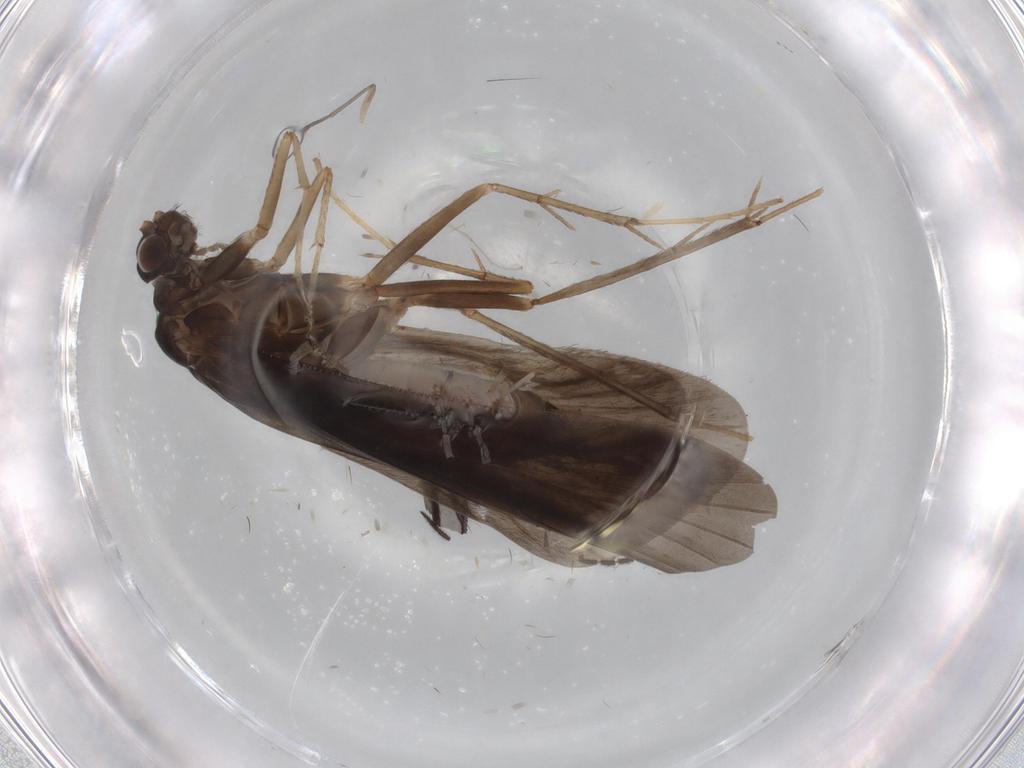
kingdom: Animalia
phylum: Arthropoda
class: Insecta
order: Trichoptera
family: Hydropsychidae
